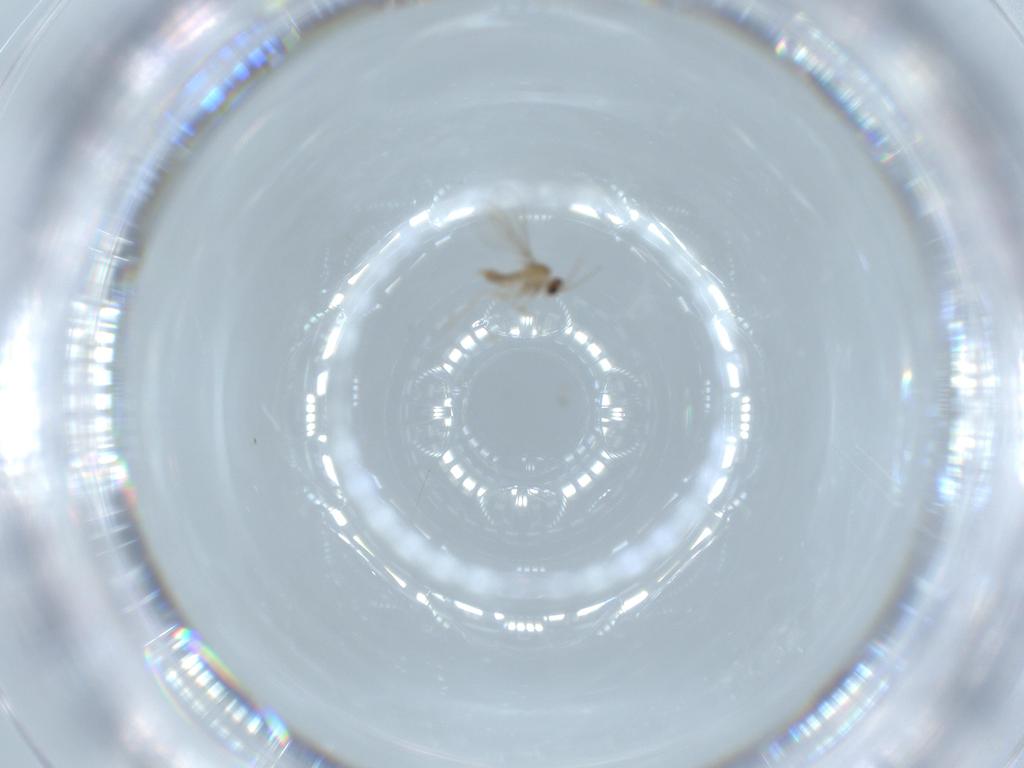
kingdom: Animalia
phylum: Arthropoda
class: Insecta
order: Diptera
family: Cecidomyiidae
